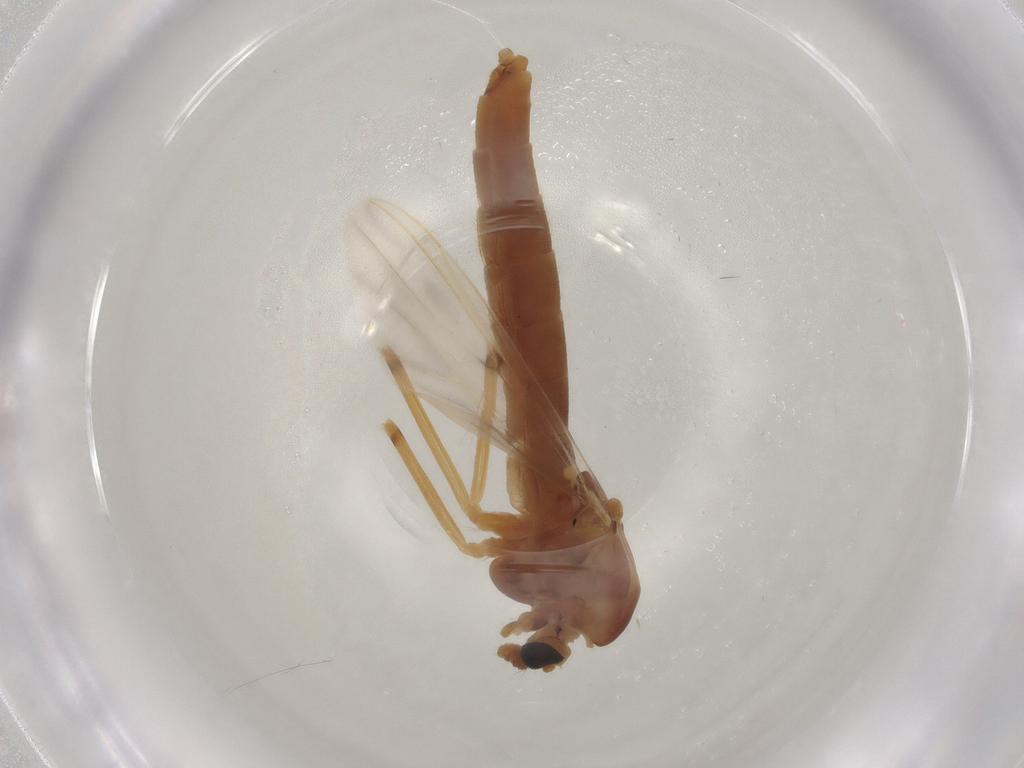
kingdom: Animalia
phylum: Arthropoda
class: Insecta
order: Diptera
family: Chironomidae
